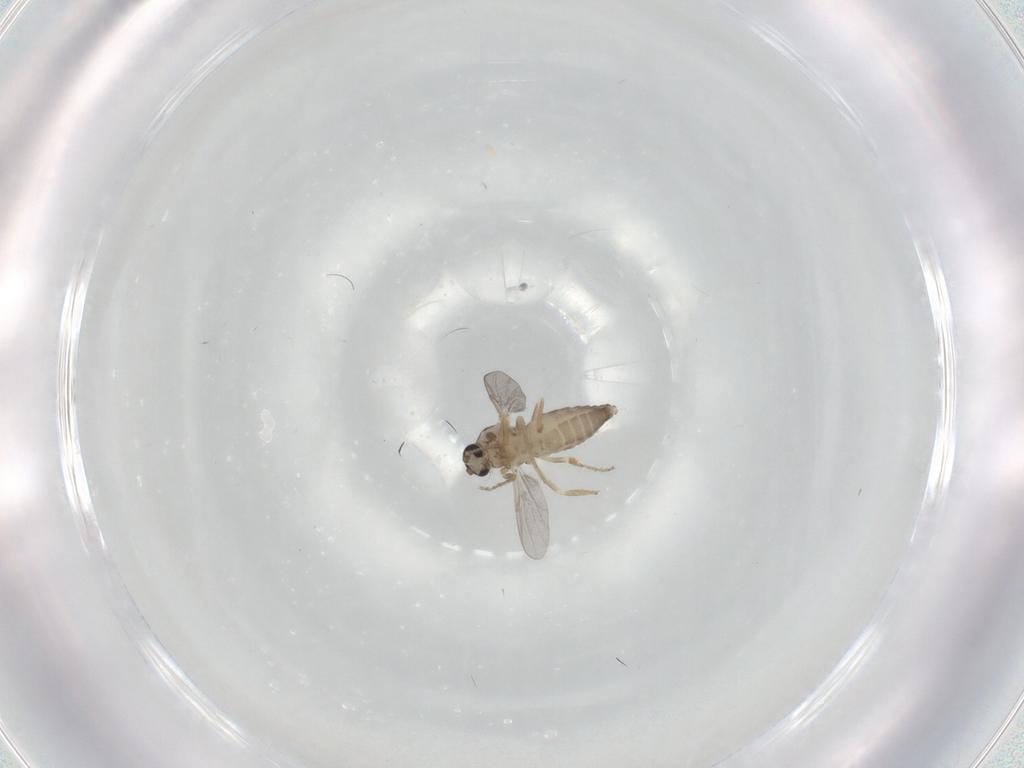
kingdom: Animalia
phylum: Arthropoda
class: Insecta
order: Diptera
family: Ceratopogonidae
